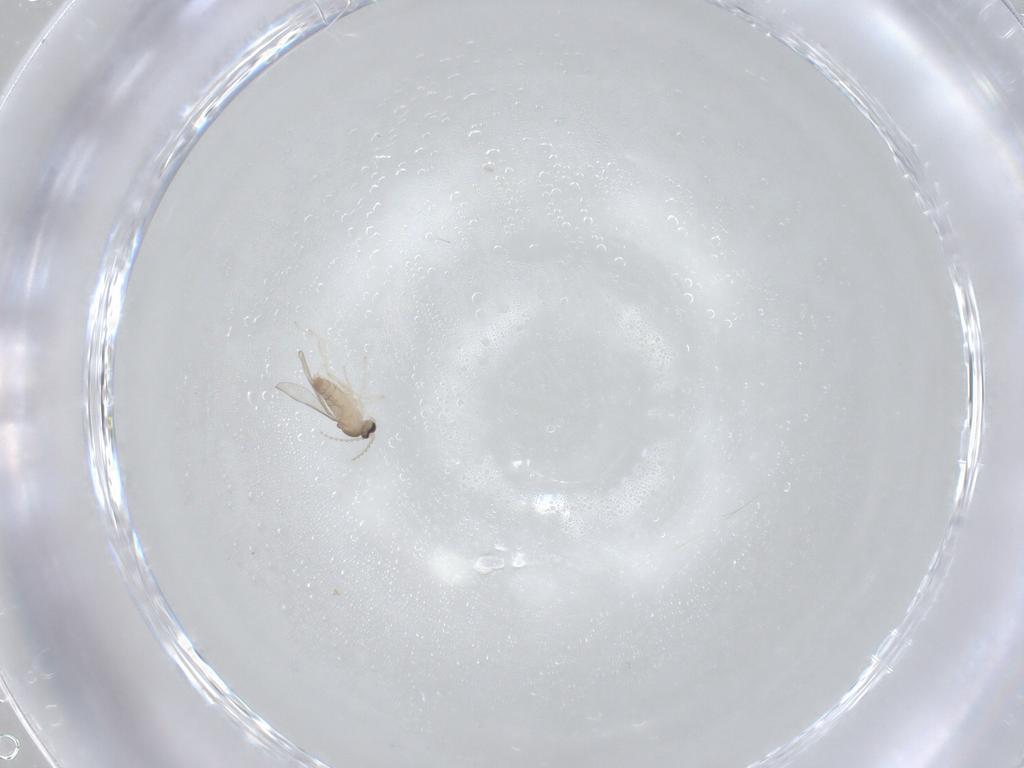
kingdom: Animalia
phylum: Arthropoda
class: Insecta
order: Diptera
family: Cecidomyiidae
